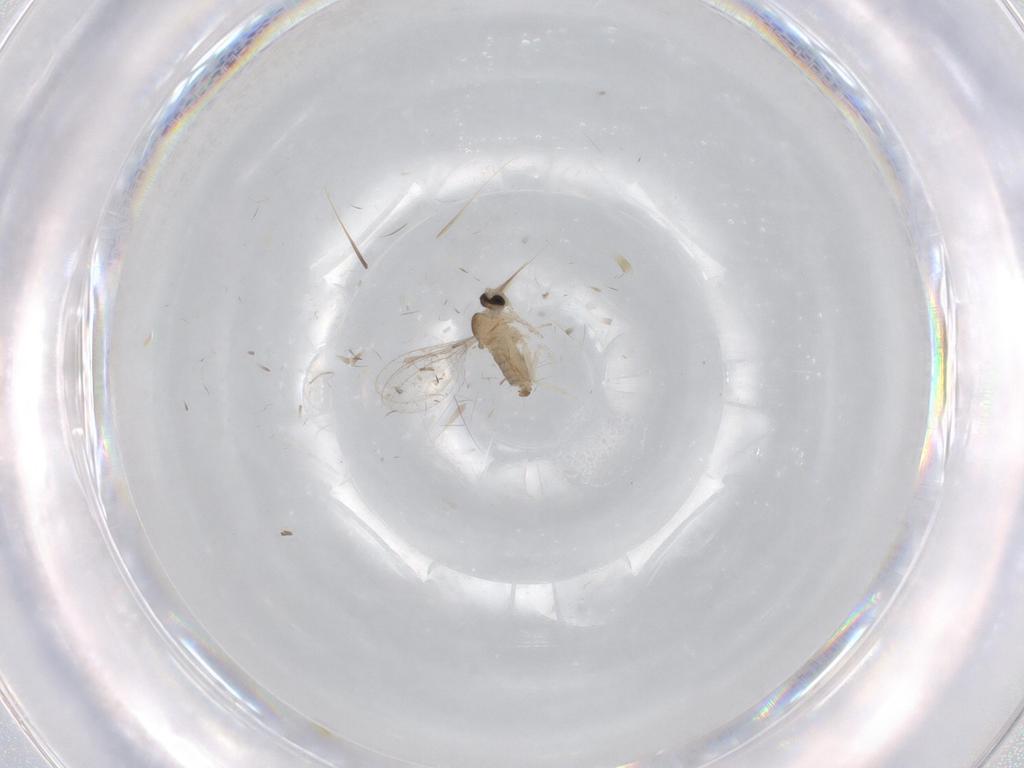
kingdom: Animalia
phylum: Arthropoda
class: Insecta
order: Diptera
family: Cecidomyiidae
